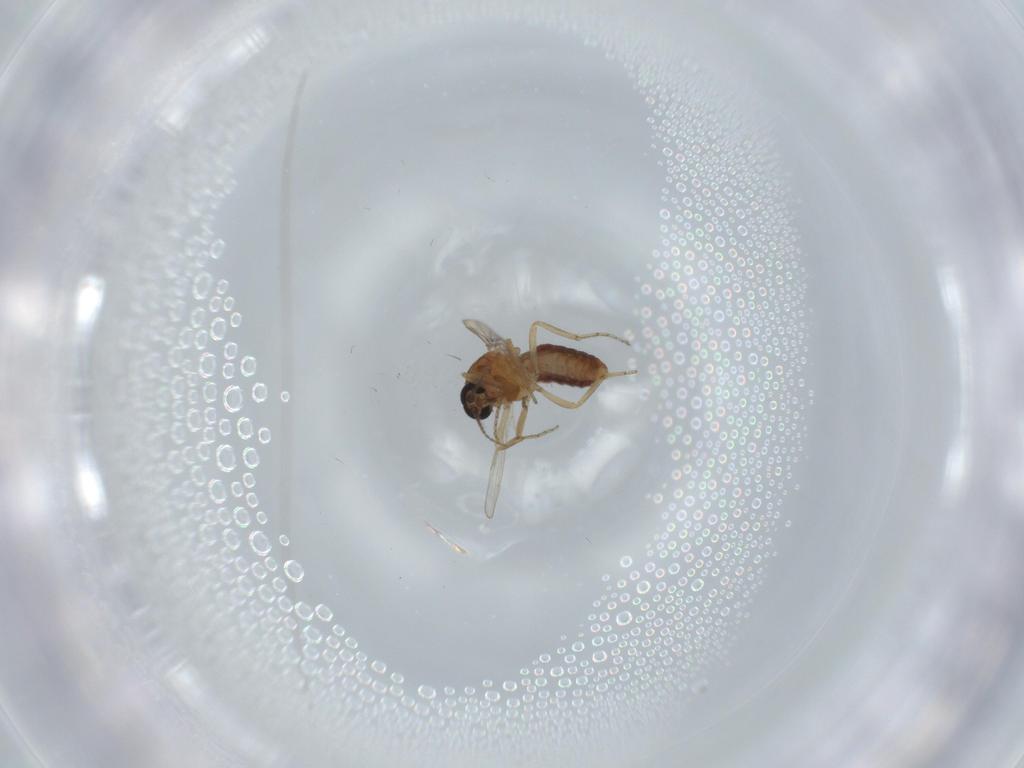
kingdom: Animalia
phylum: Arthropoda
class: Insecta
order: Diptera
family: Ceratopogonidae
